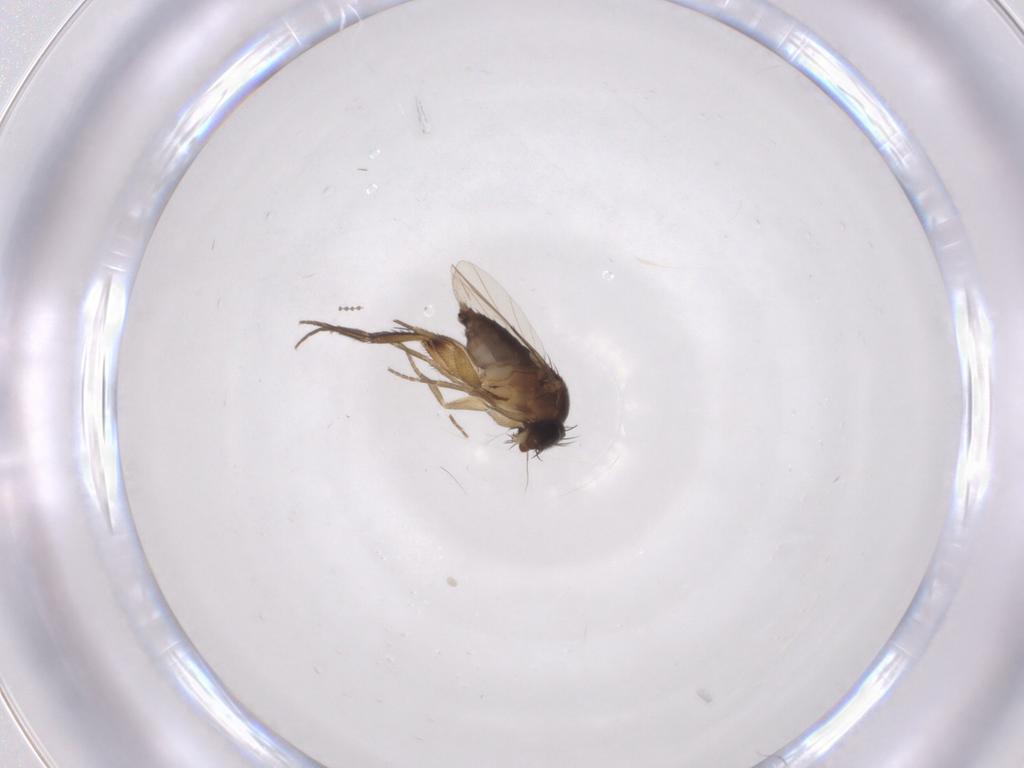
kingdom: Animalia
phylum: Arthropoda
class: Insecta
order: Diptera
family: Phoridae
